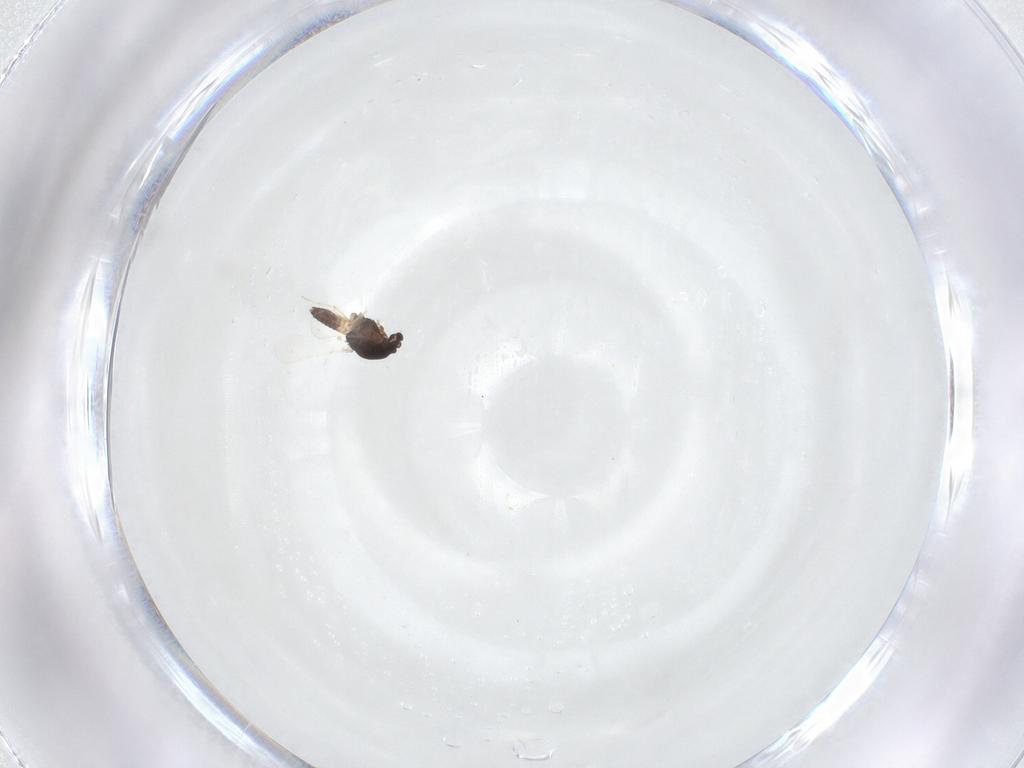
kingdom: Animalia
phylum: Arthropoda
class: Insecta
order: Diptera
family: Chironomidae
